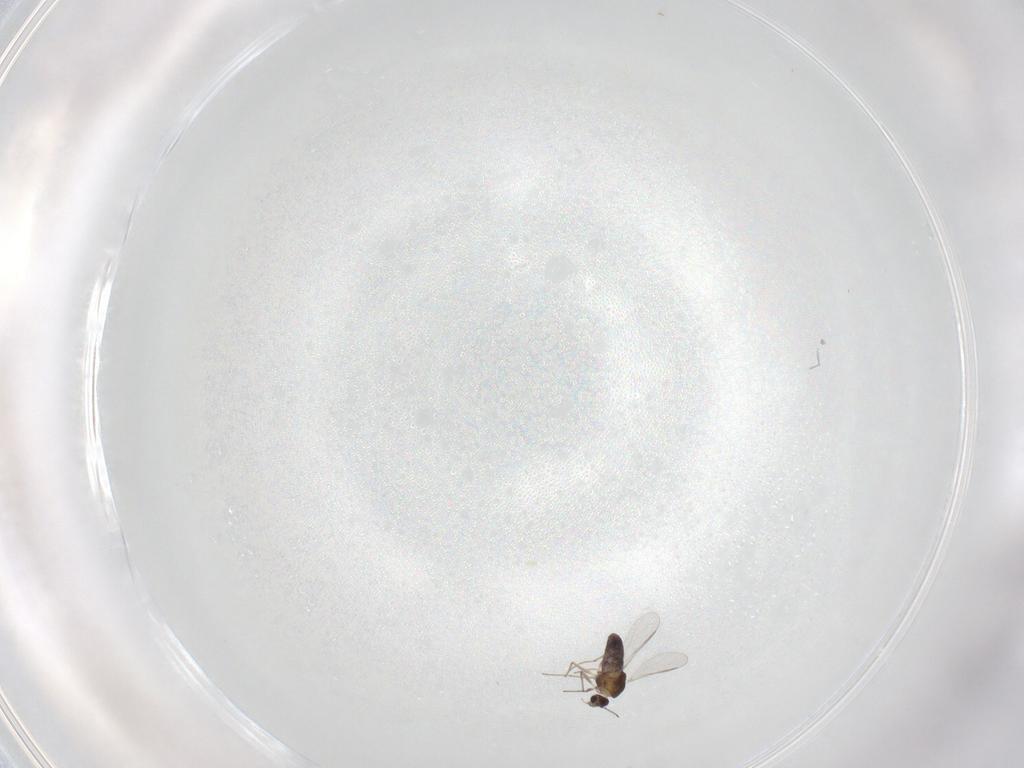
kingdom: Animalia
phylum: Arthropoda
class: Insecta
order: Diptera
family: Chironomidae
